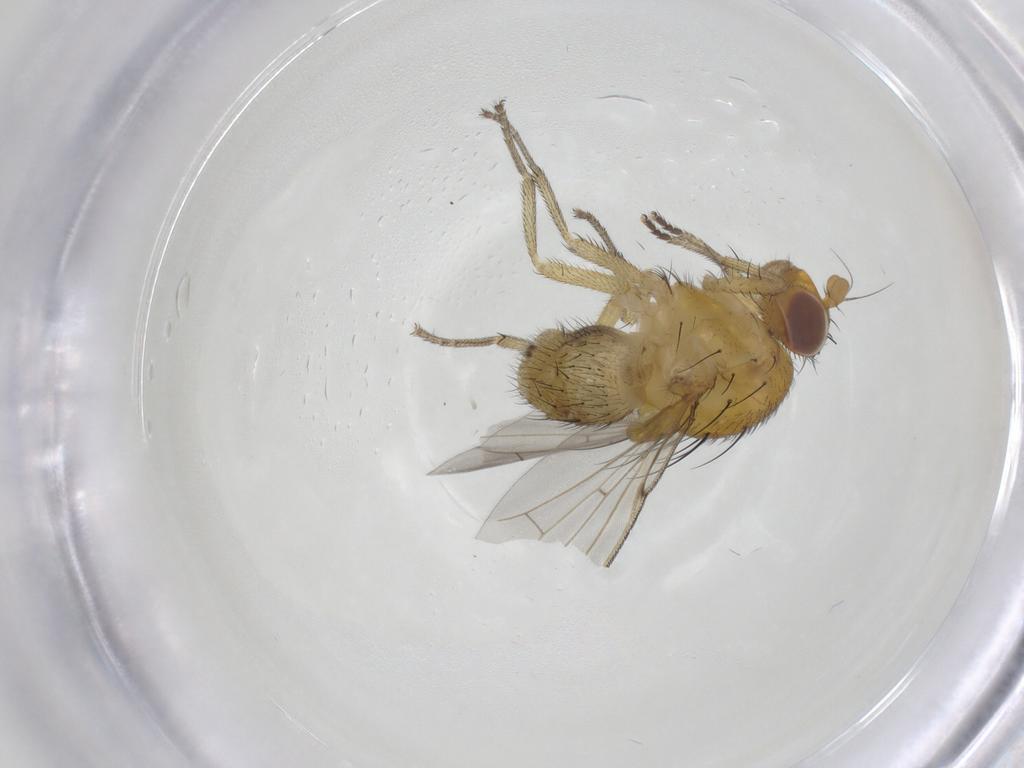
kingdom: Animalia
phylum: Arthropoda
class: Insecta
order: Diptera
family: Lauxaniidae
